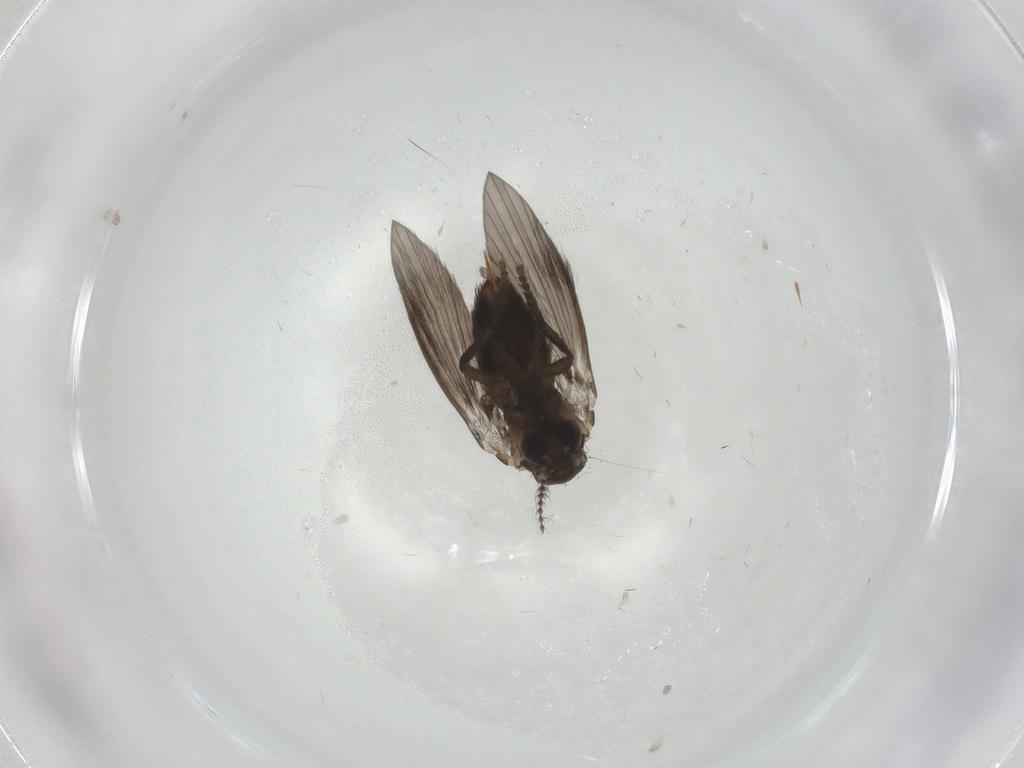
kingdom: Animalia
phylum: Arthropoda
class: Insecta
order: Diptera
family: Psychodidae
